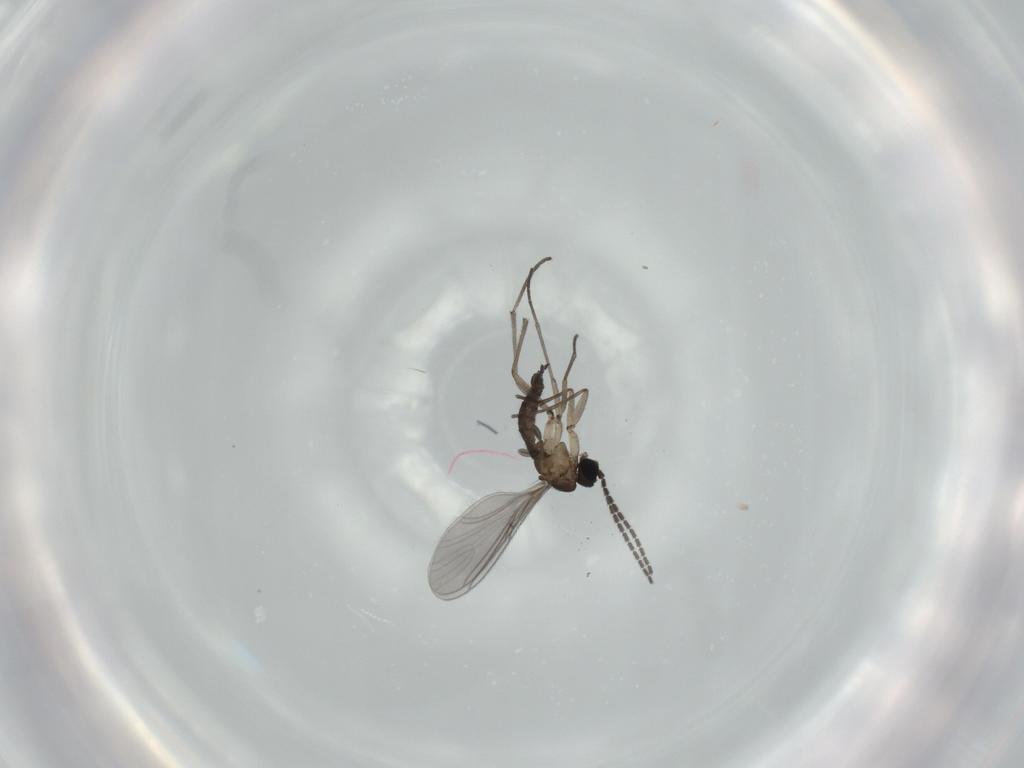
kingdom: Animalia
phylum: Arthropoda
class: Insecta
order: Diptera
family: Sciaridae
